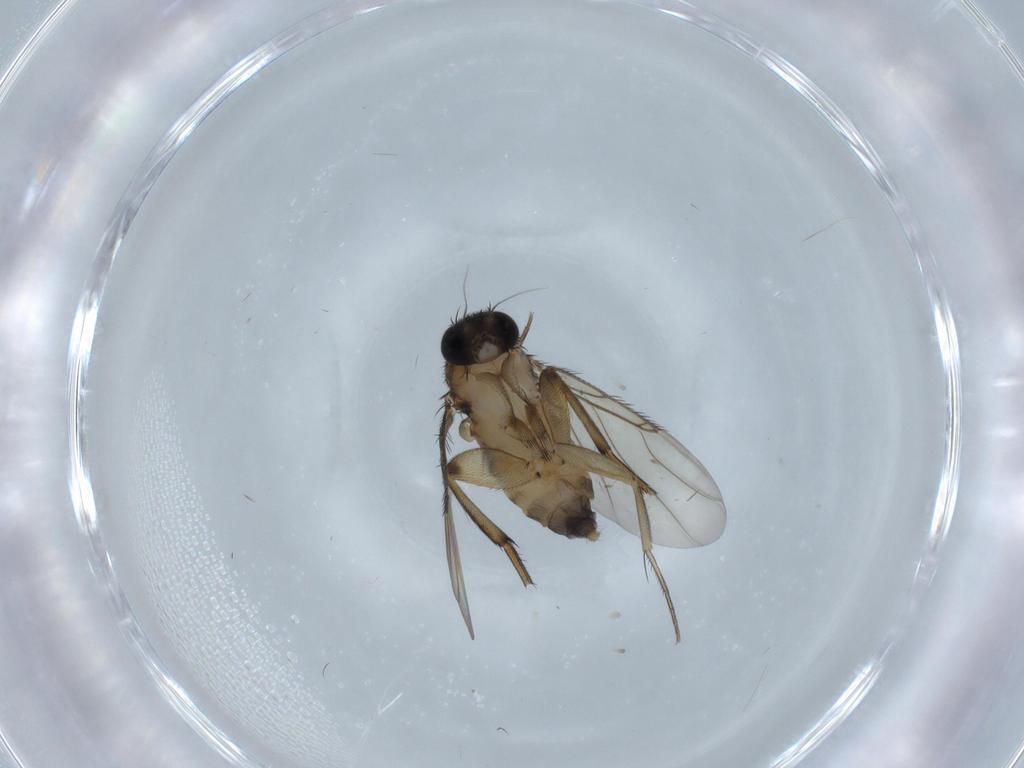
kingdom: Animalia
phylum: Arthropoda
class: Insecta
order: Diptera
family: Phoridae
